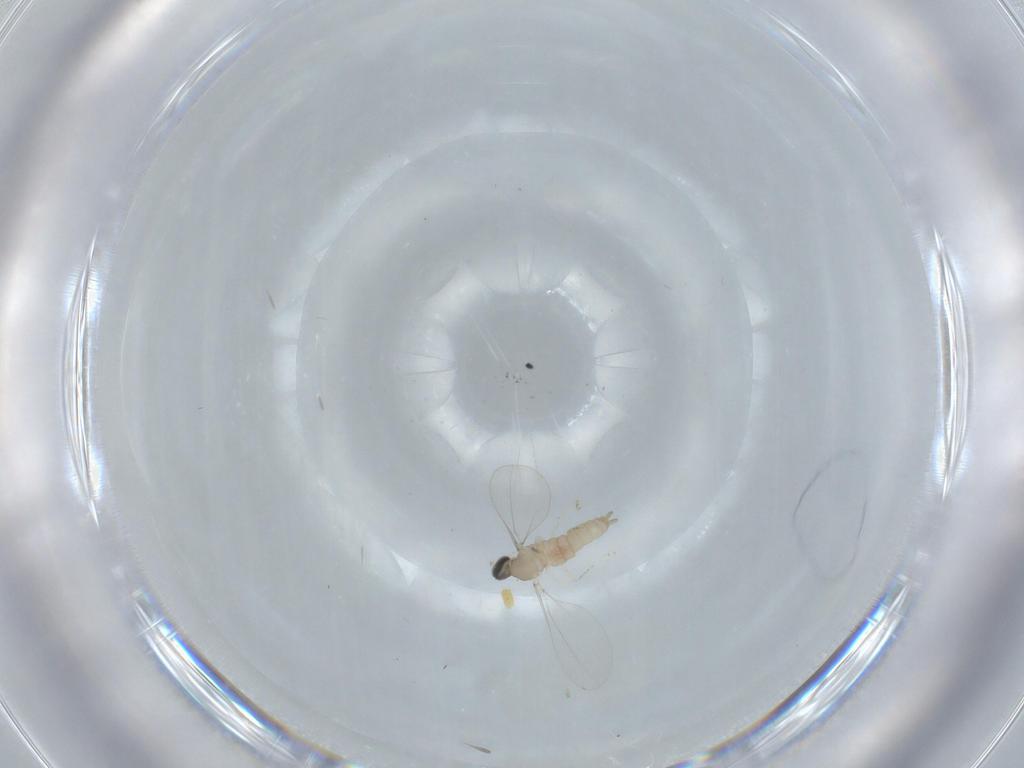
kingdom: Animalia
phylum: Arthropoda
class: Insecta
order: Diptera
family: Cecidomyiidae
